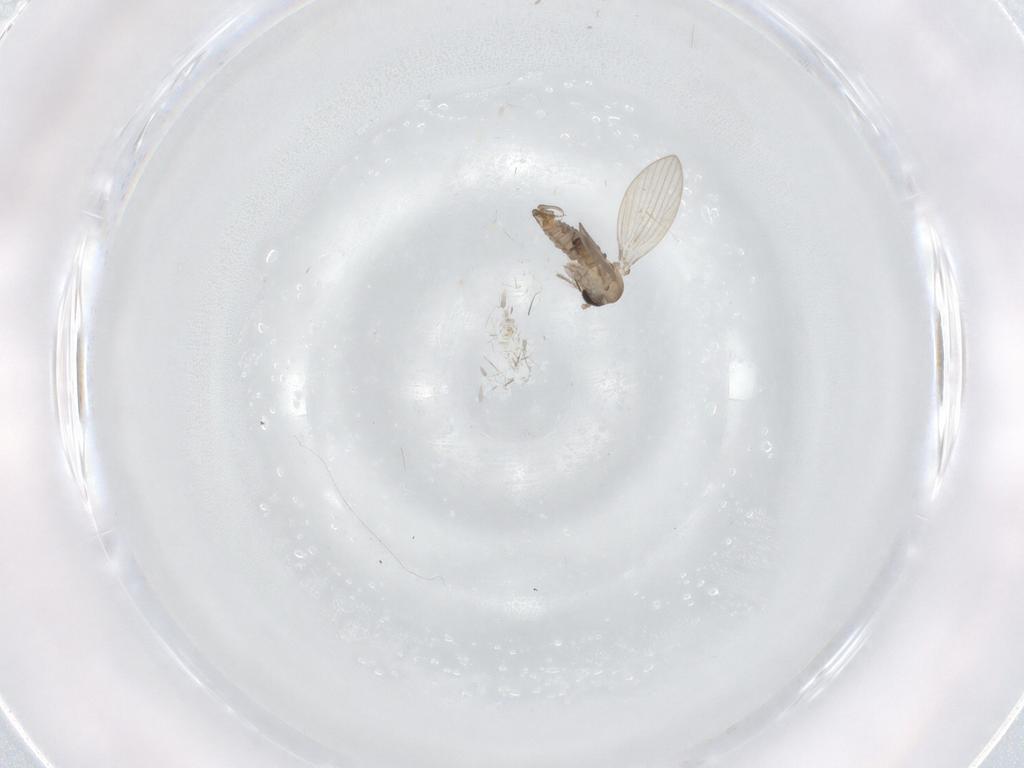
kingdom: Animalia
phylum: Arthropoda
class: Insecta
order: Diptera
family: Psychodidae
